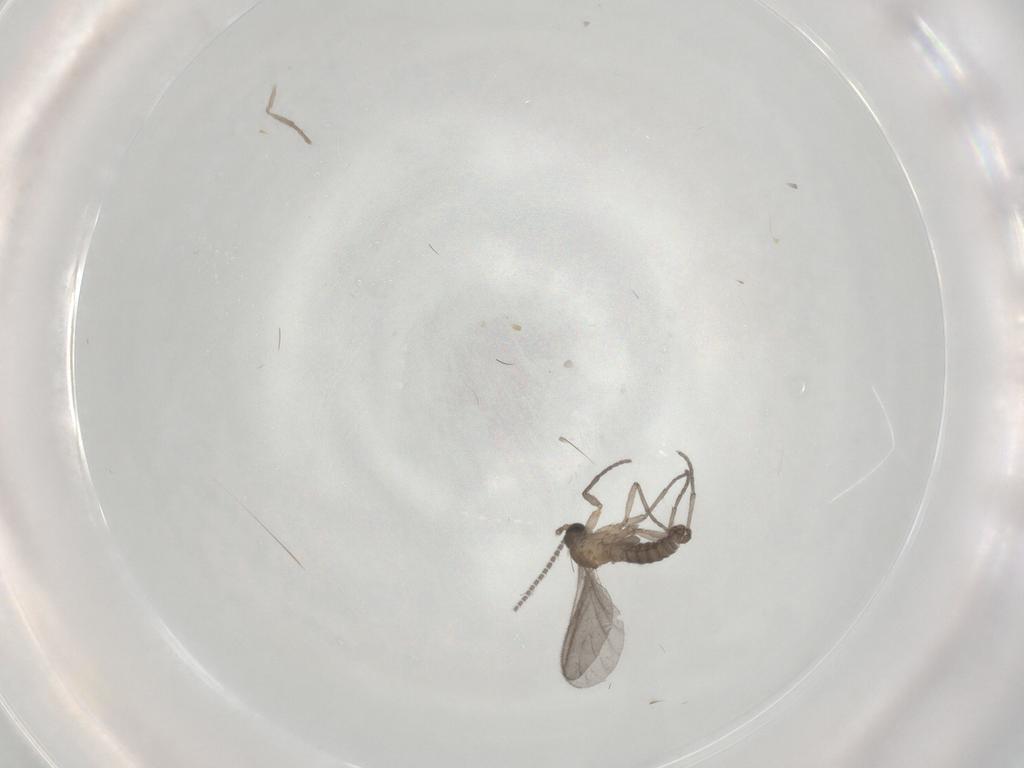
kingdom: Animalia
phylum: Arthropoda
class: Insecta
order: Diptera
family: Sciaridae
